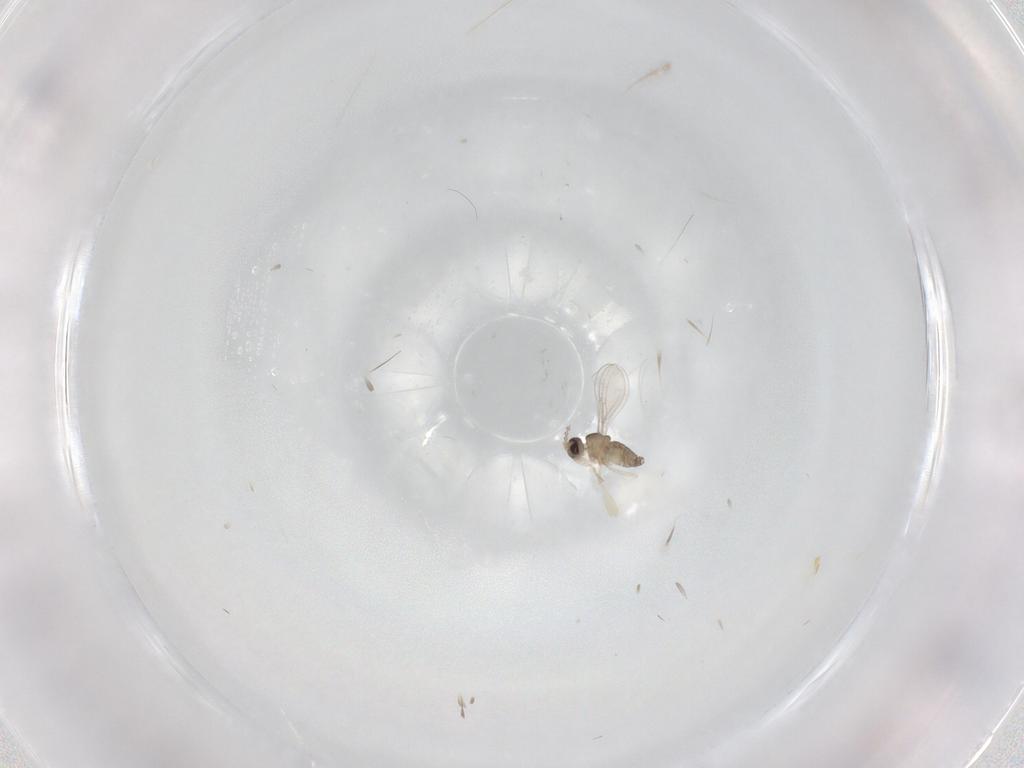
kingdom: Animalia
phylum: Arthropoda
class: Insecta
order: Diptera
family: Cecidomyiidae
